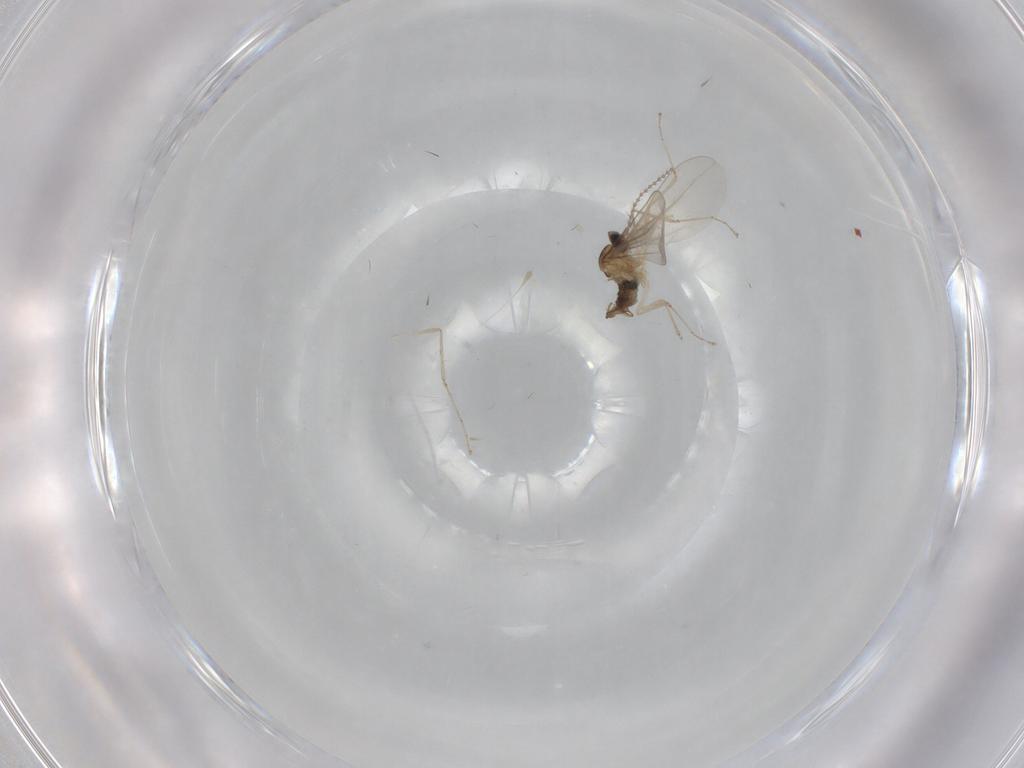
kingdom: Animalia
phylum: Arthropoda
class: Insecta
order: Diptera
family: Cecidomyiidae
